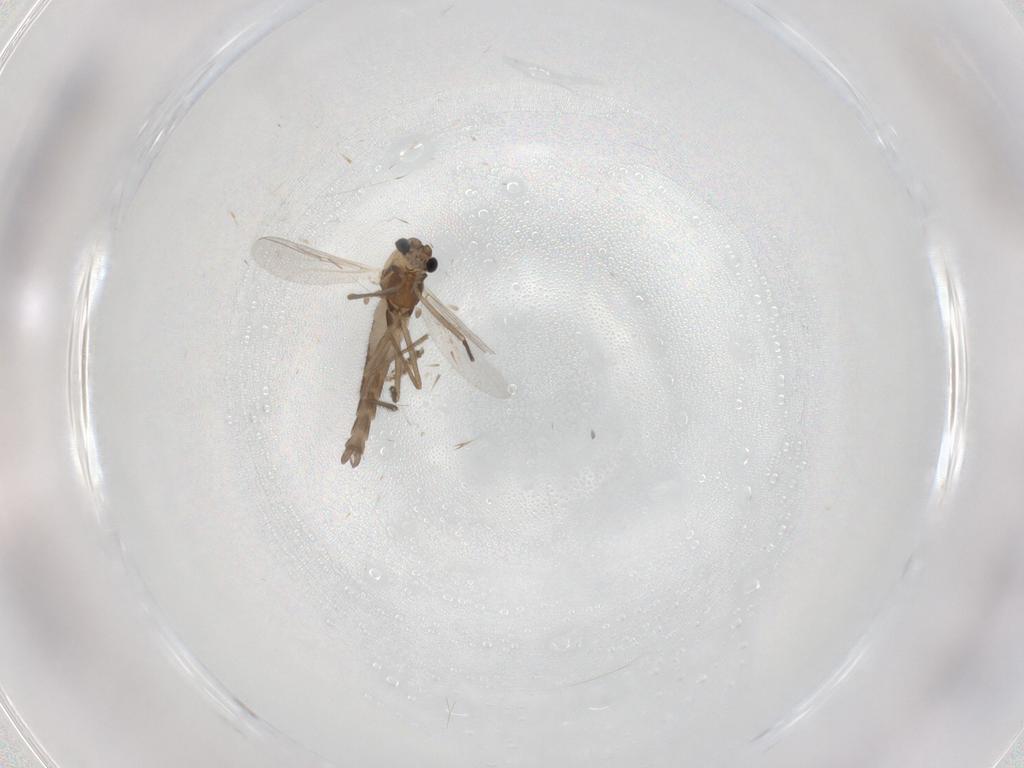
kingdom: Animalia
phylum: Arthropoda
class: Insecta
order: Diptera
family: Chironomidae
